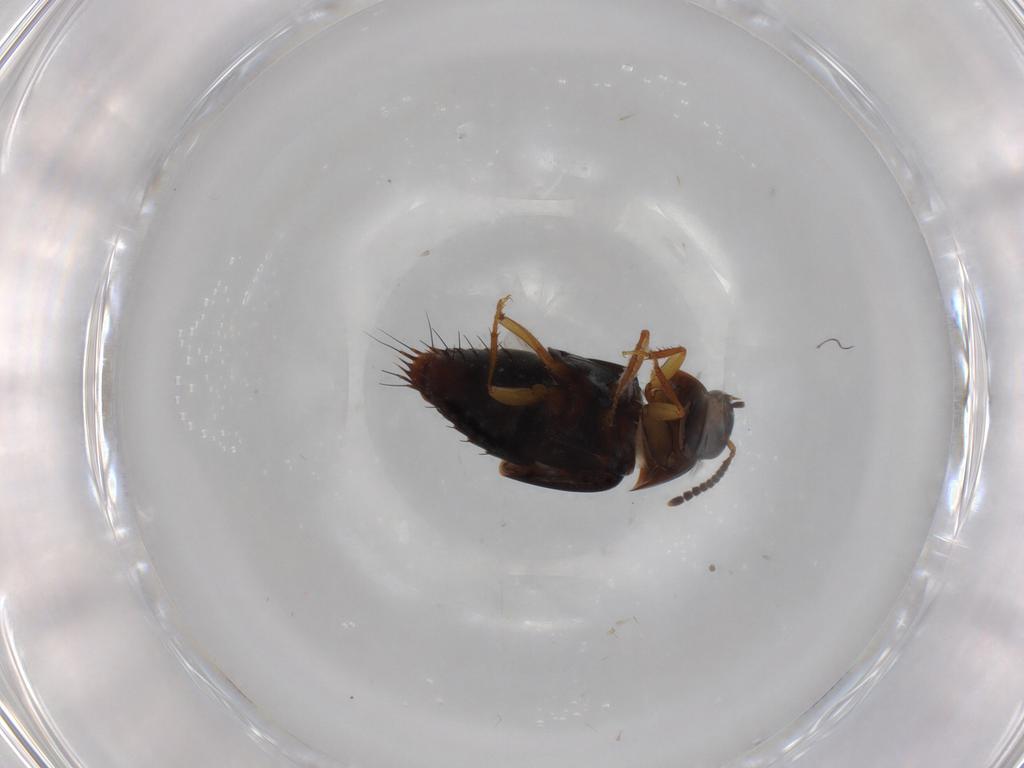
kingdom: Animalia
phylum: Arthropoda
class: Insecta
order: Coleoptera
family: Staphylinidae
